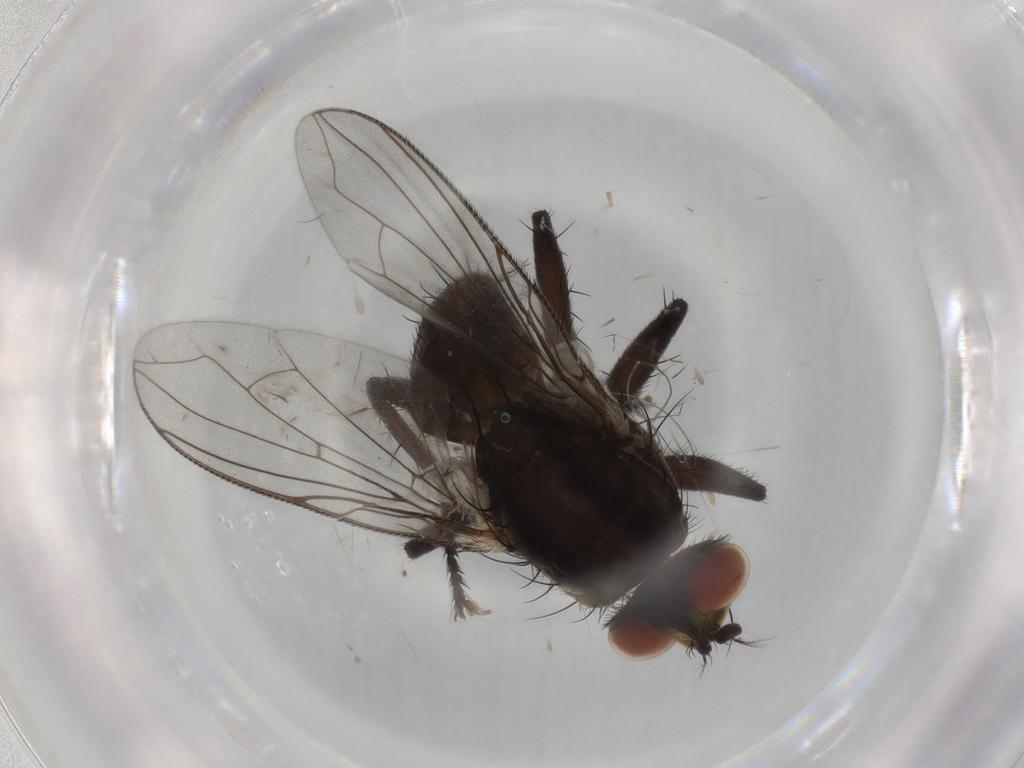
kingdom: Animalia
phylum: Arthropoda
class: Insecta
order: Diptera
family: Sarcophagidae
